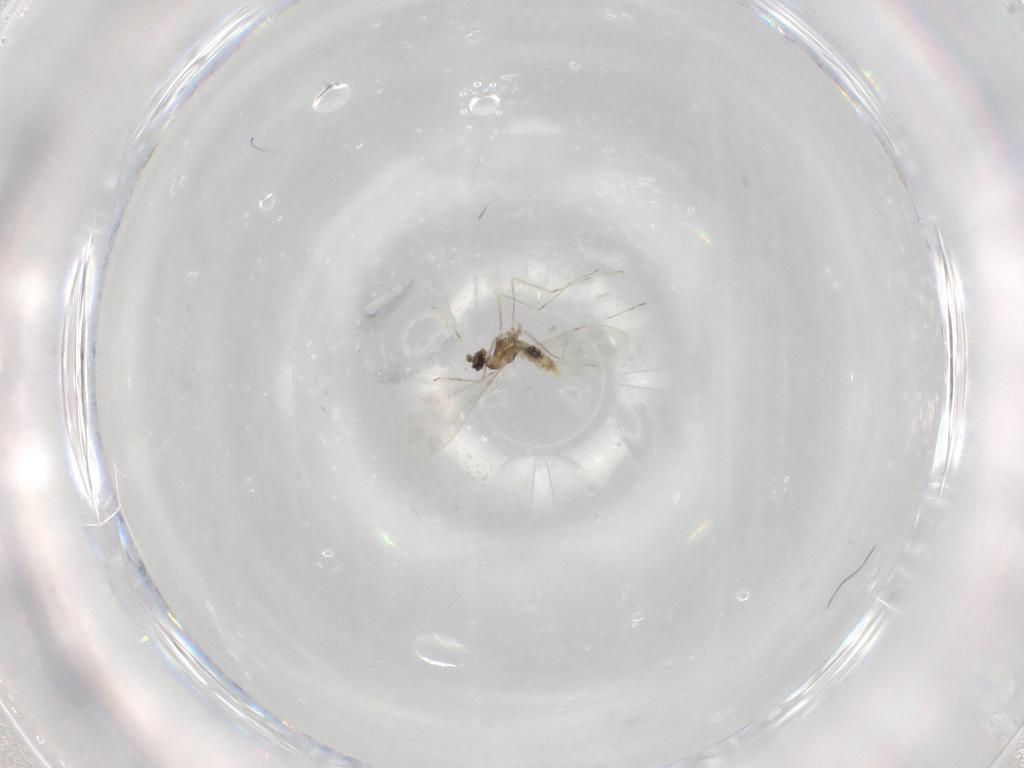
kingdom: Animalia
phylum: Arthropoda
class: Insecta
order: Diptera
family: Cecidomyiidae
